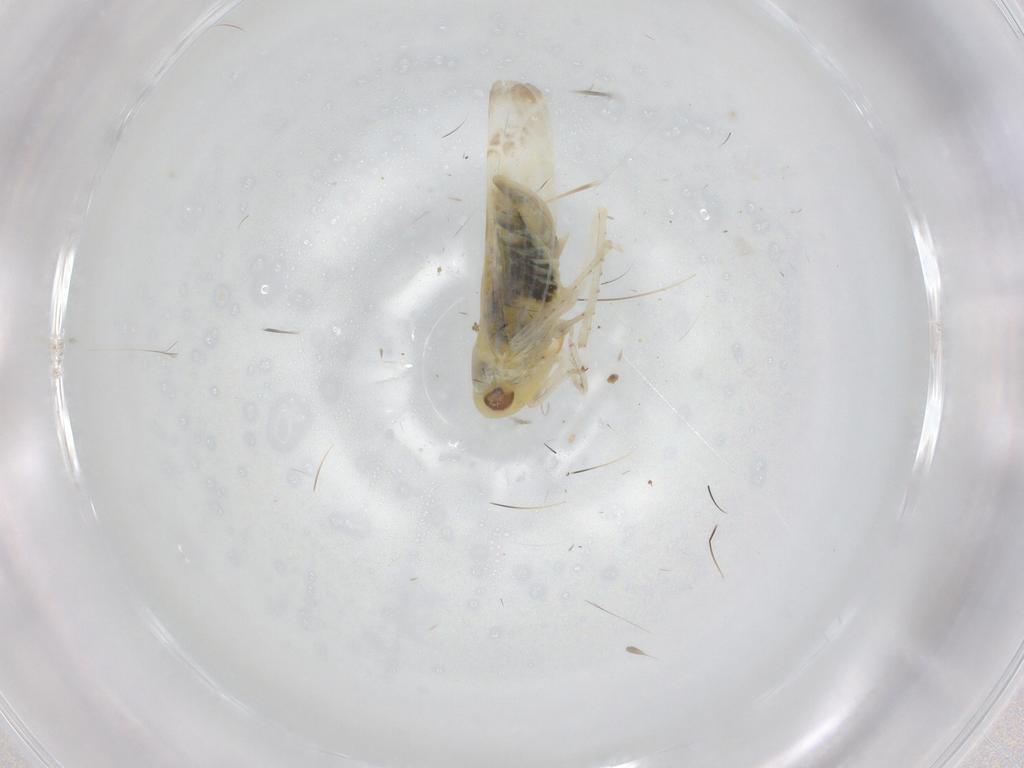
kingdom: Animalia
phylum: Arthropoda
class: Insecta
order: Hemiptera
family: Cicadellidae
